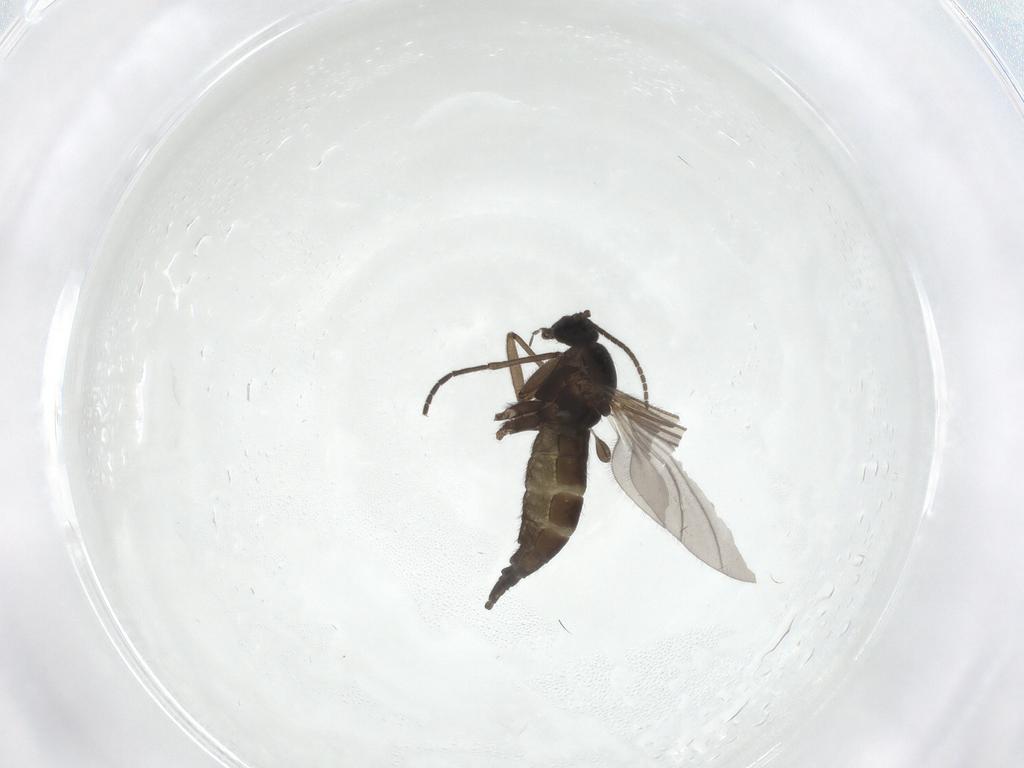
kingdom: Animalia
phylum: Arthropoda
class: Insecta
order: Diptera
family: Sciaridae
